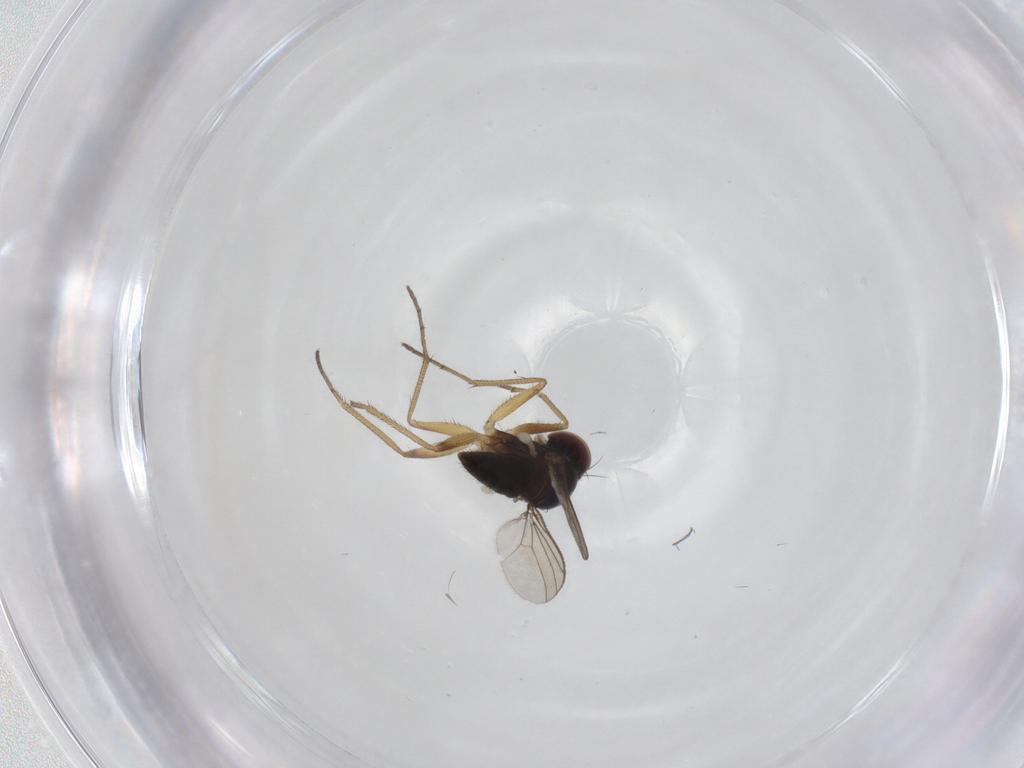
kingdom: Animalia
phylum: Arthropoda
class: Insecta
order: Diptera
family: Dolichopodidae
